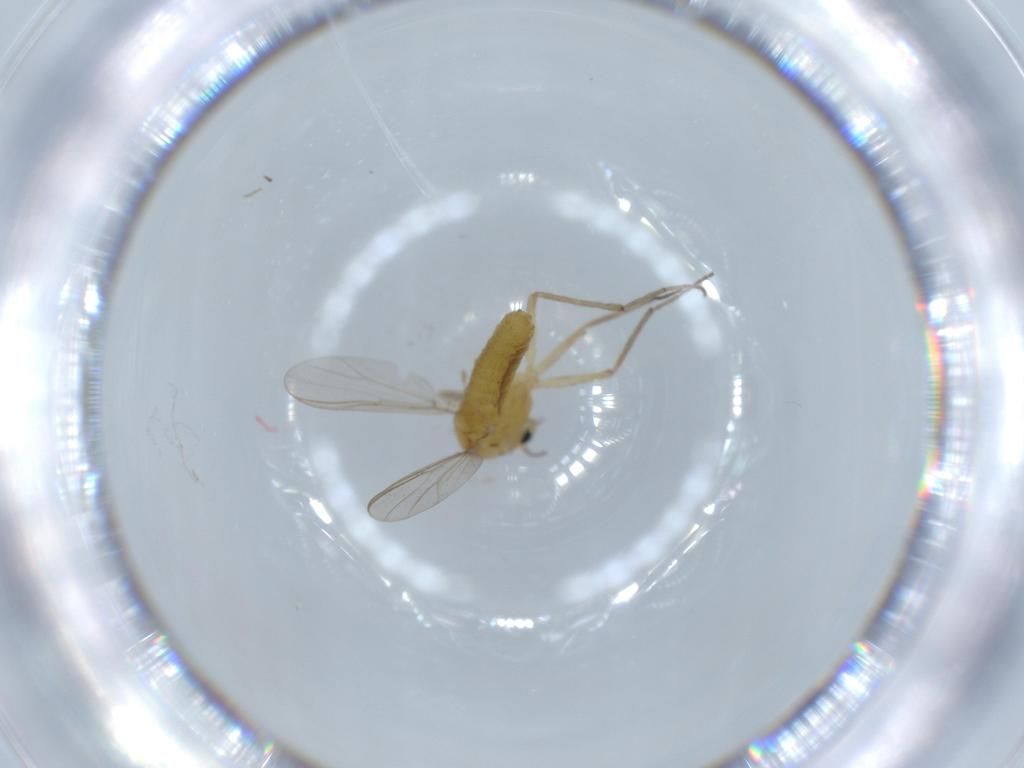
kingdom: Animalia
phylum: Arthropoda
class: Insecta
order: Diptera
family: Chironomidae
